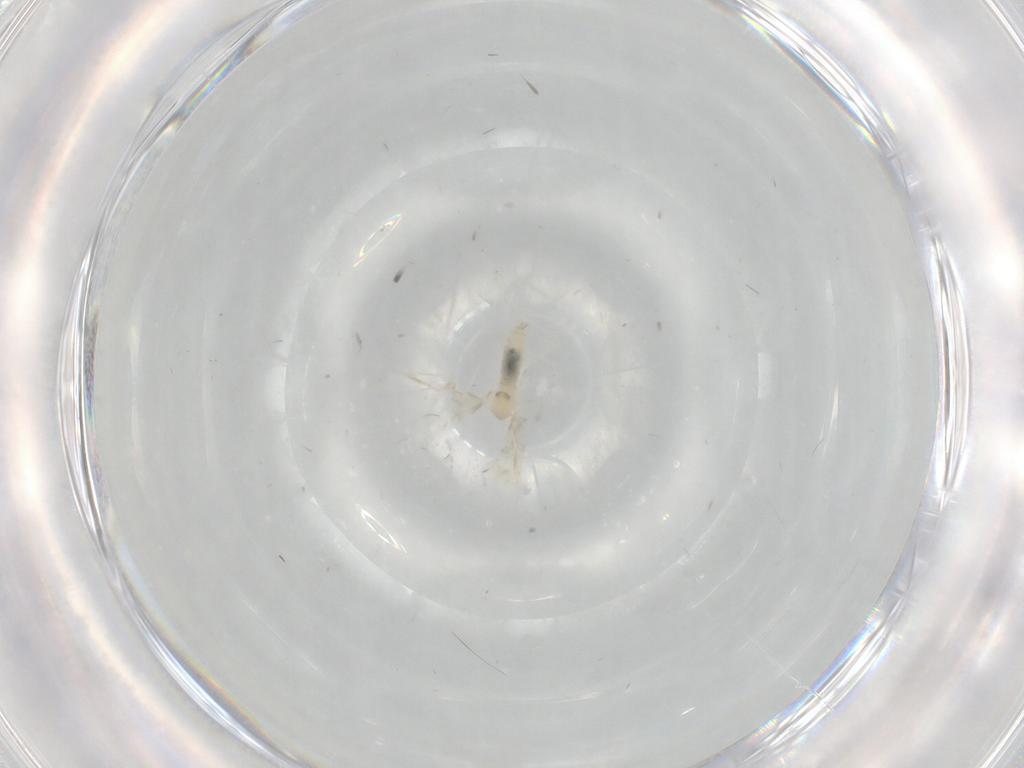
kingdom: Animalia
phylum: Arthropoda
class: Insecta
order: Diptera
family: Cecidomyiidae
